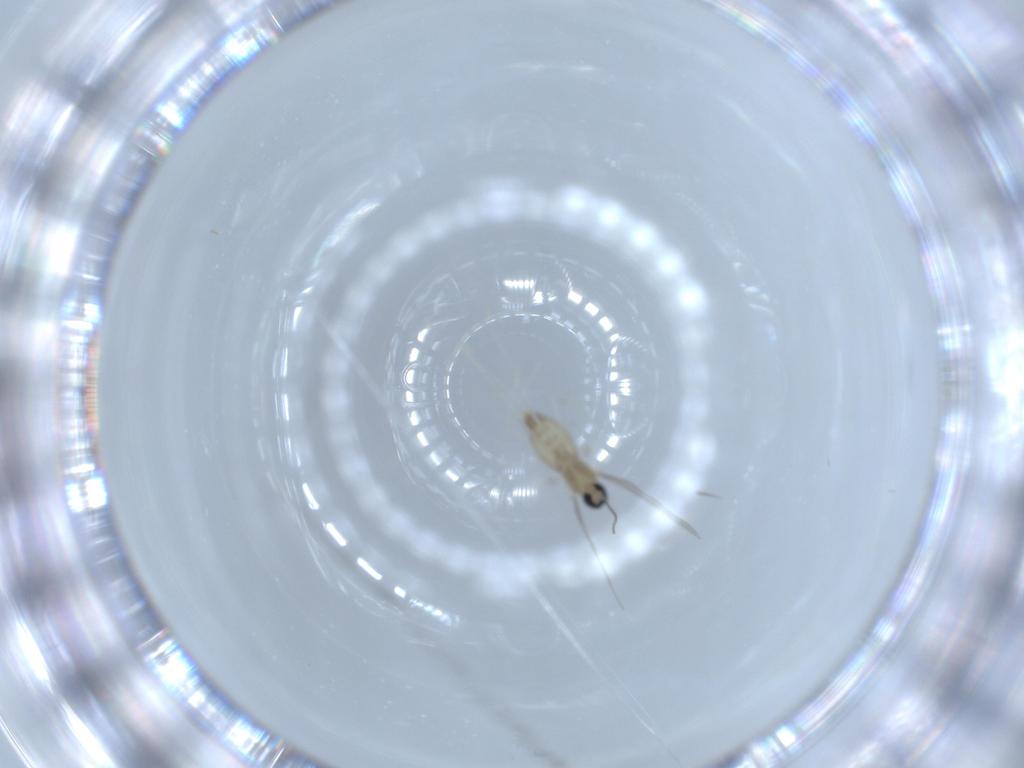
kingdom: Animalia
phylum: Arthropoda
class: Insecta
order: Diptera
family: Cecidomyiidae
